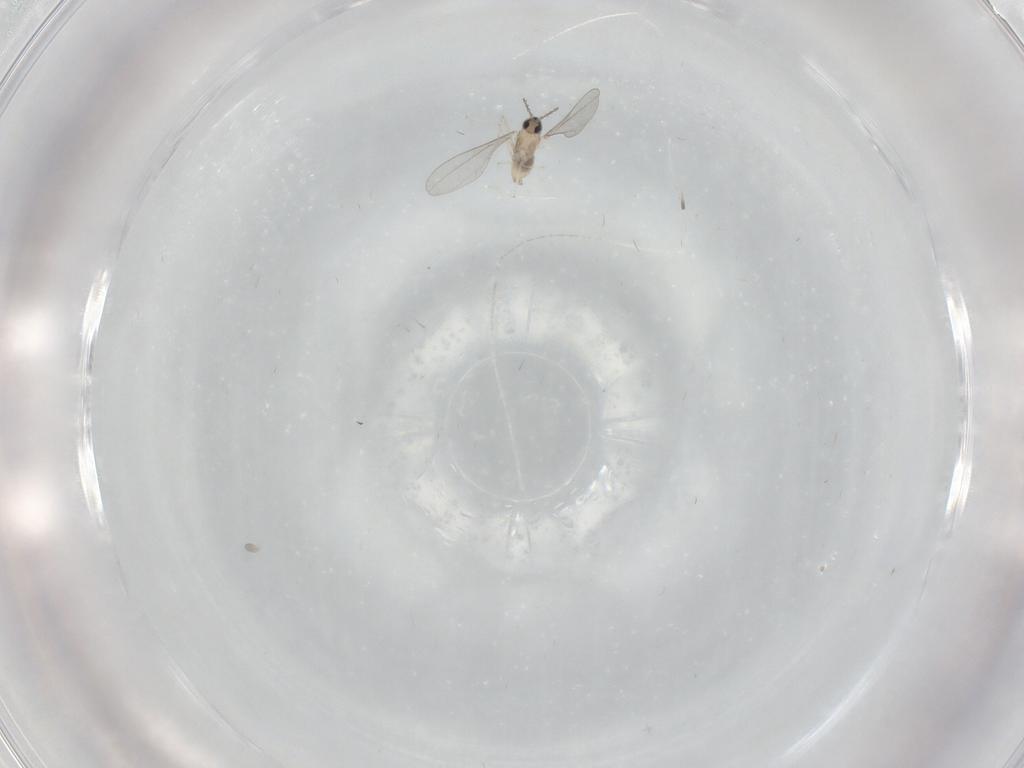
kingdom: Animalia
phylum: Arthropoda
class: Insecta
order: Diptera
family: Cecidomyiidae
